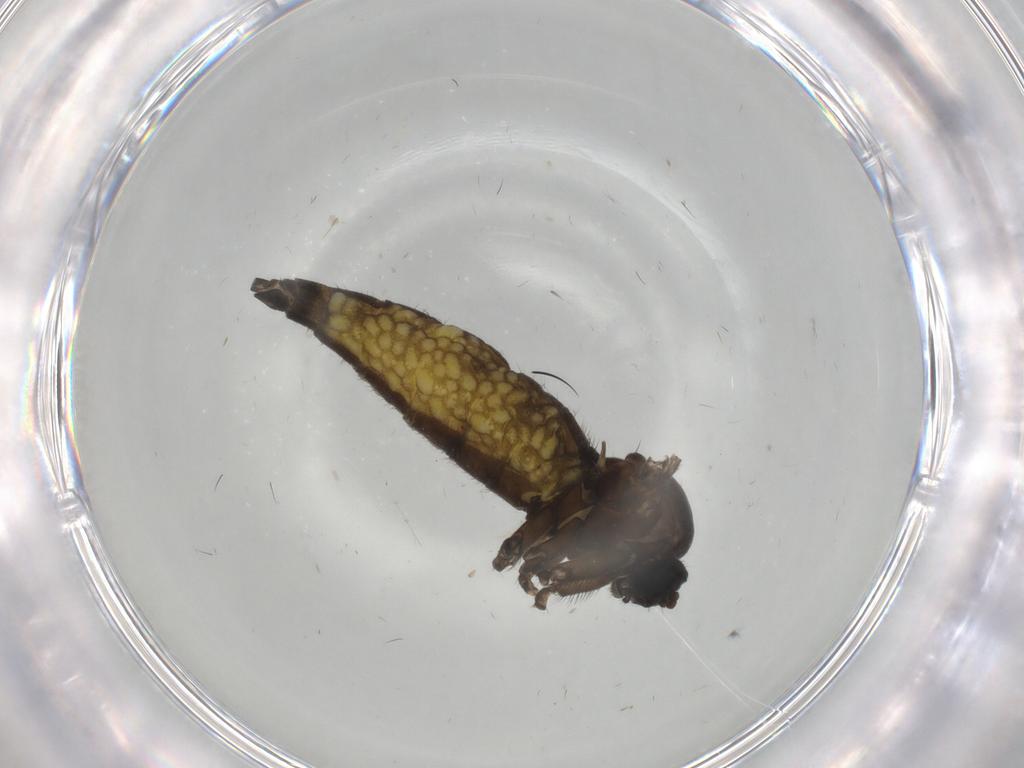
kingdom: Animalia
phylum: Arthropoda
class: Insecta
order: Diptera
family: Sciaridae
